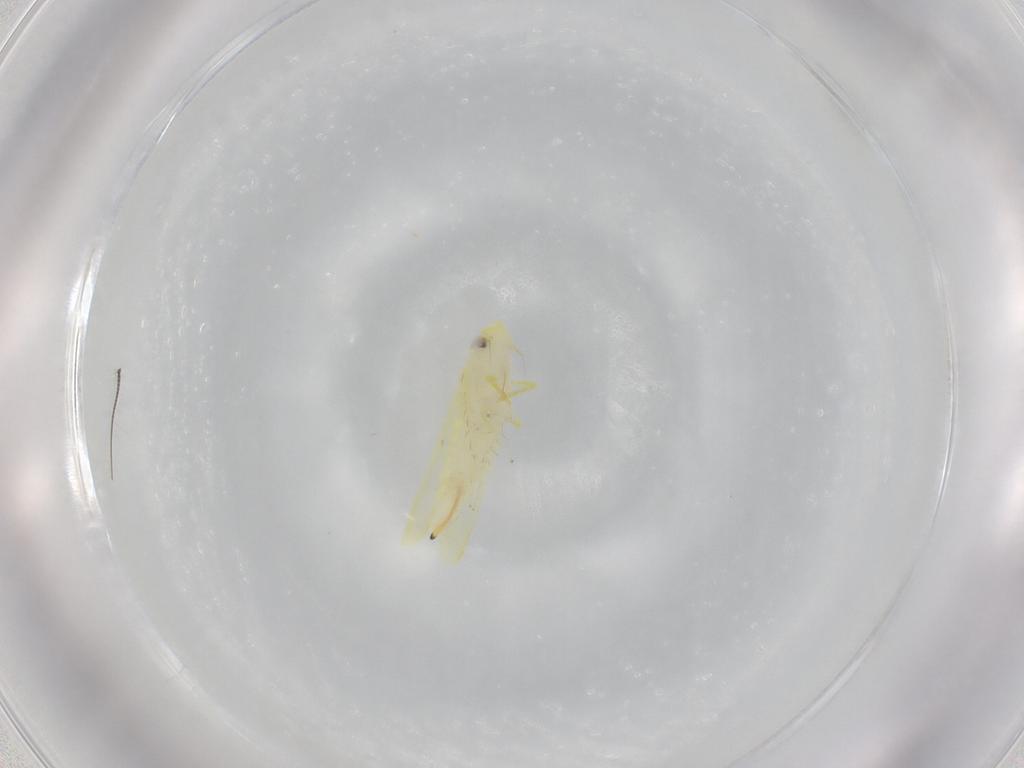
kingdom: Animalia
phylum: Arthropoda
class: Insecta
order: Hemiptera
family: Cicadellidae
